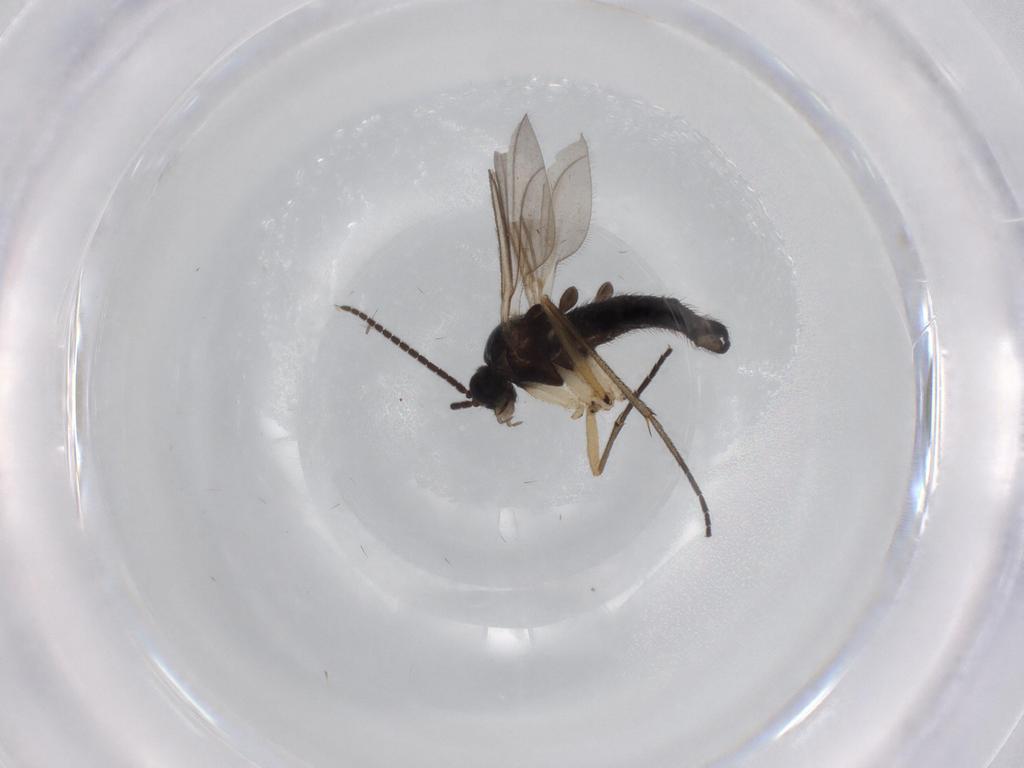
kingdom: Animalia
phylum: Arthropoda
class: Insecta
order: Diptera
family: Sciaridae
